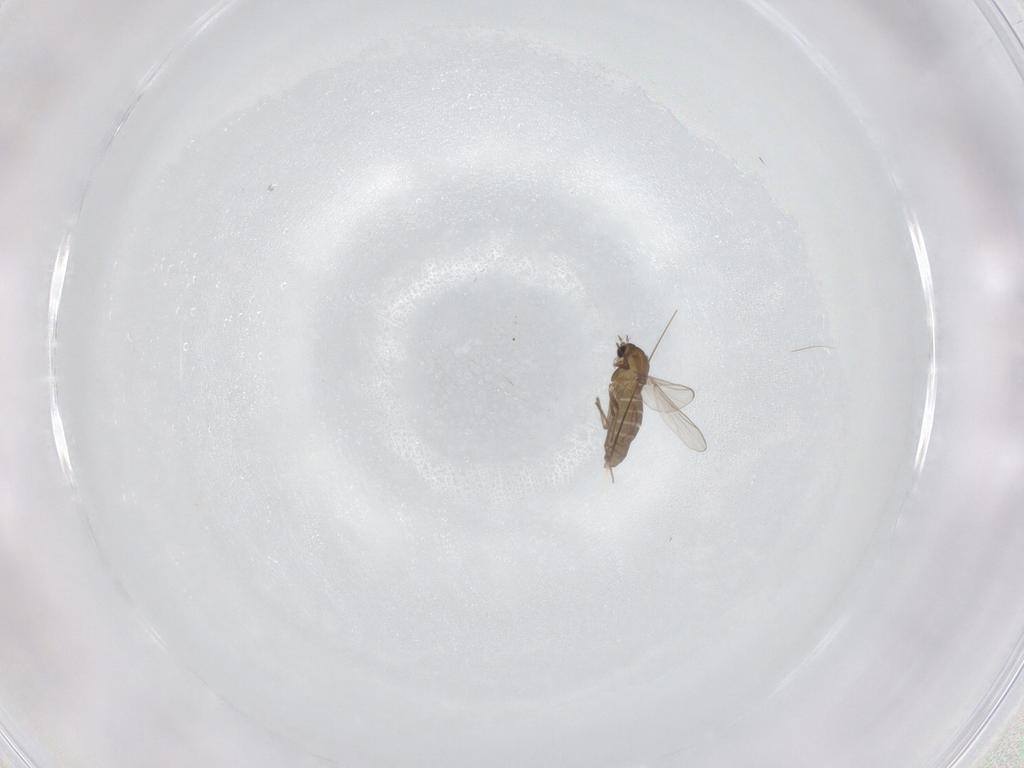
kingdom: Animalia
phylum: Arthropoda
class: Insecta
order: Diptera
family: Chironomidae
